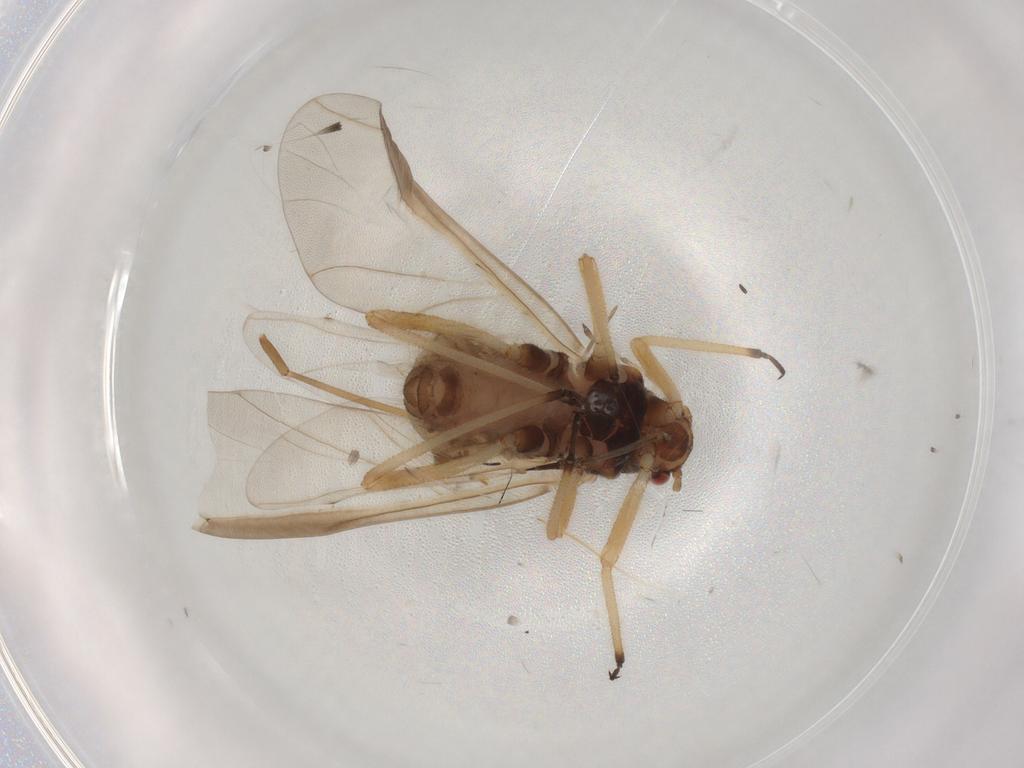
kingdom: Animalia
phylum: Arthropoda
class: Insecta
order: Hemiptera
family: Aphididae
